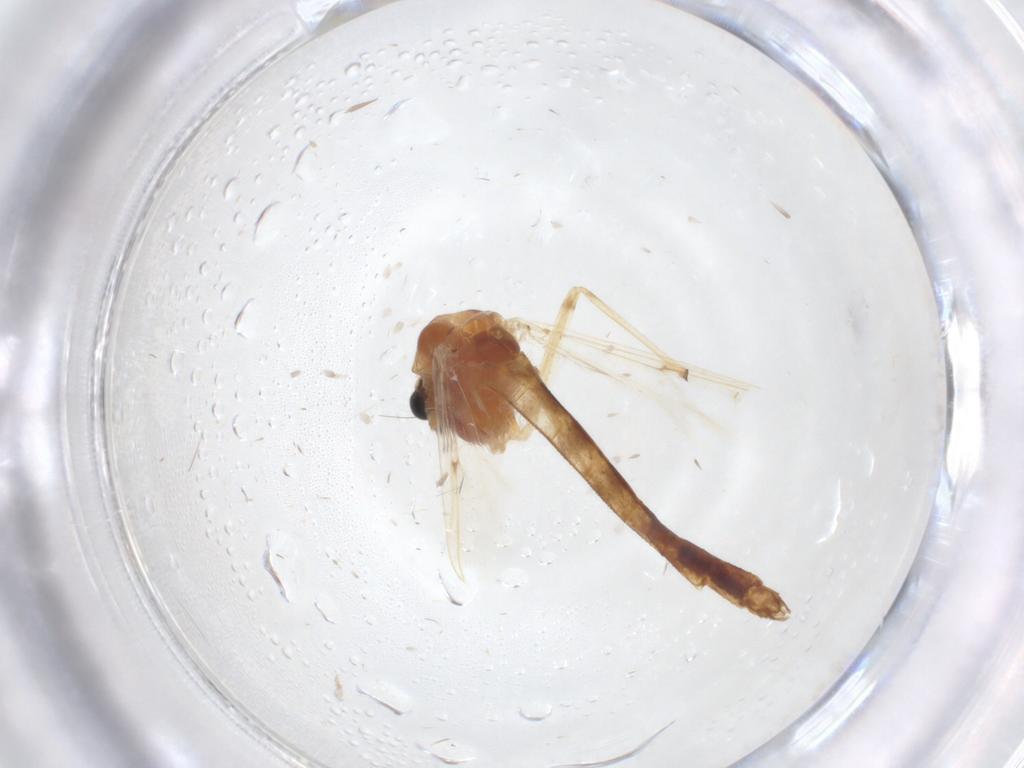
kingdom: Animalia
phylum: Arthropoda
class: Insecta
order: Diptera
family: Chironomidae
